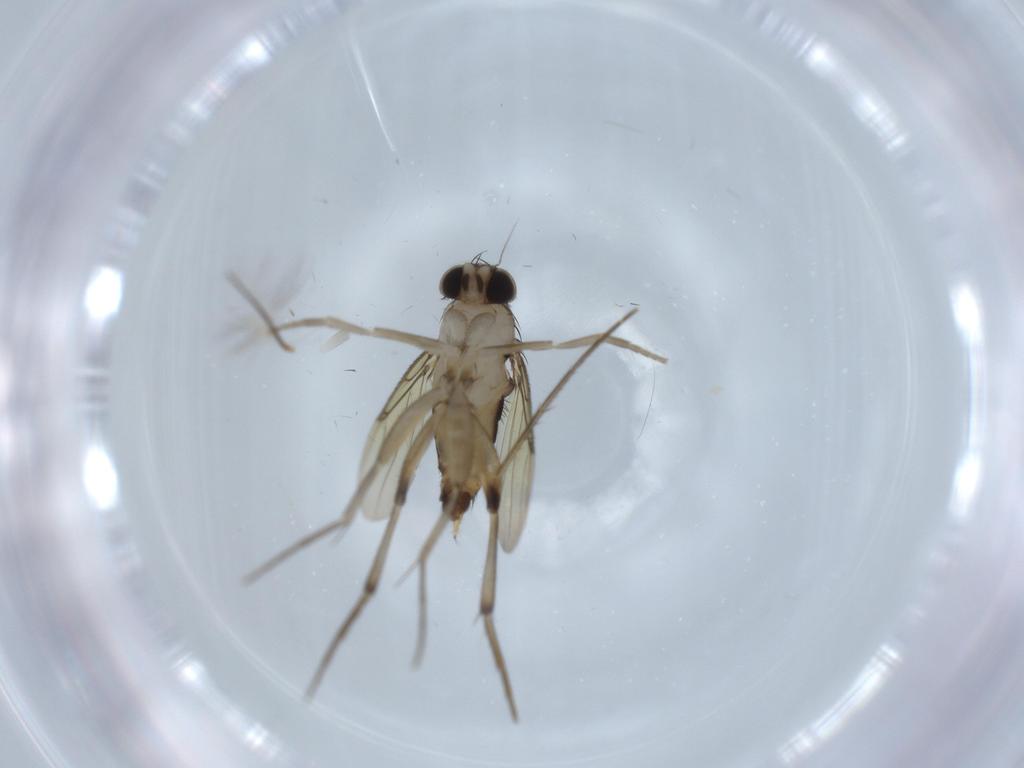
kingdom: Animalia
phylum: Arthropoda
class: Insecta
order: Diptera
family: Phoridae
